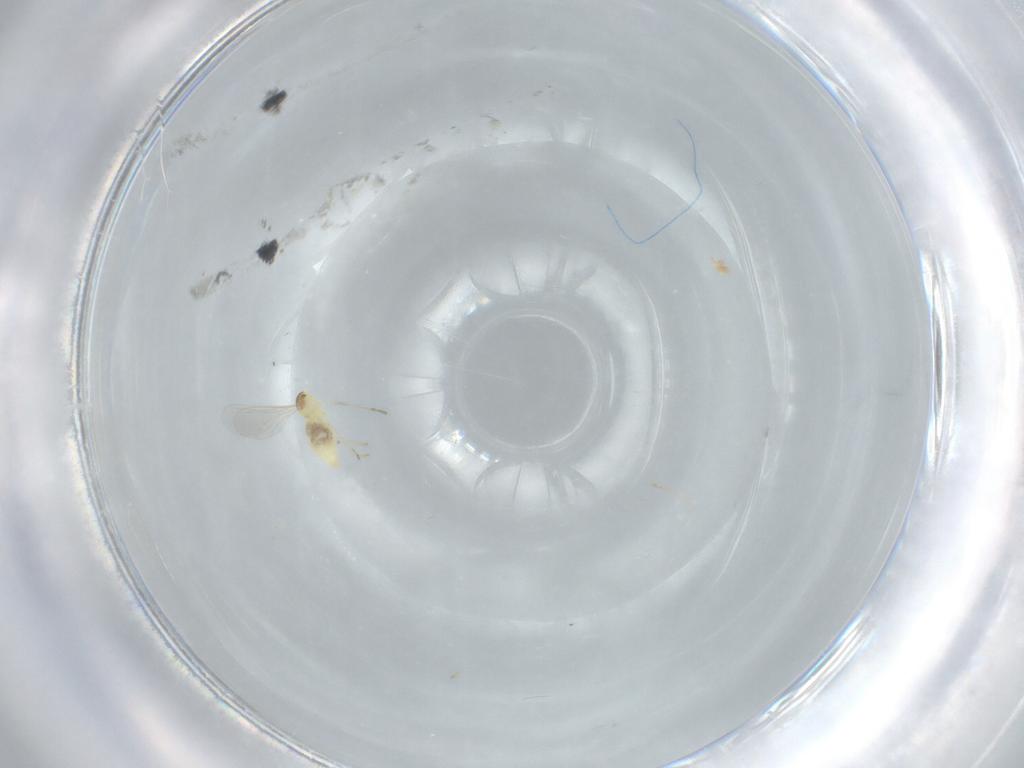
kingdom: Animalia
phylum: Arthropoda
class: Insecta
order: Diptera
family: Cecidomyiidae
